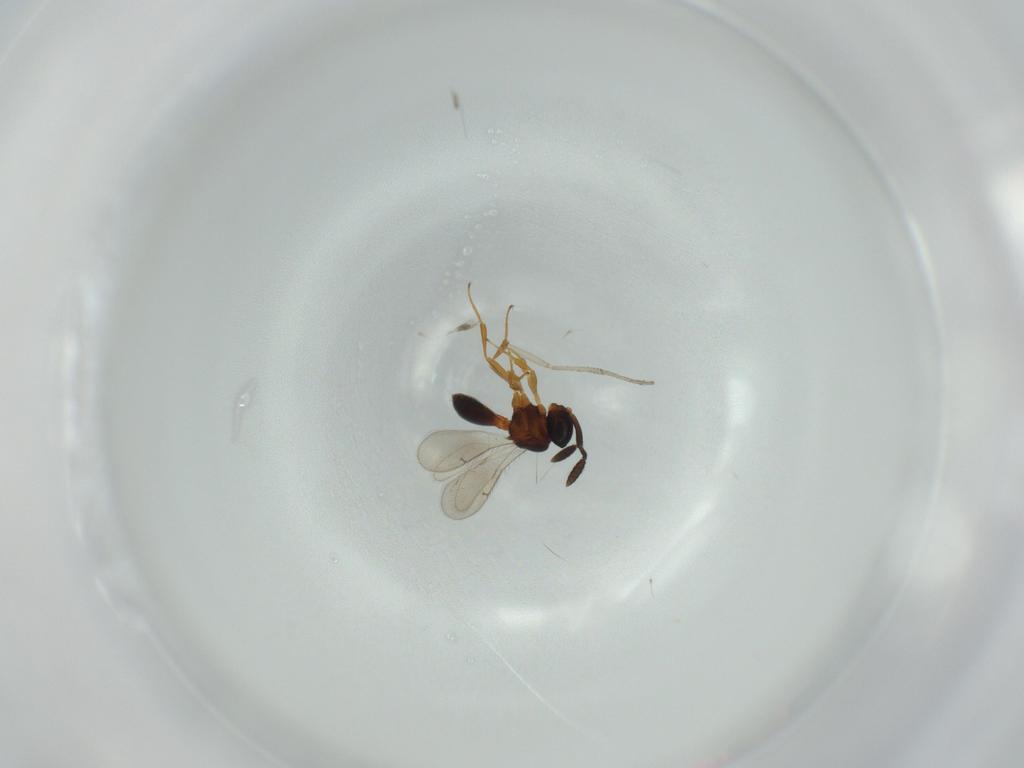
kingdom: Animalia
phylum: Arthropoda
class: Insecta
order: Hymenoptera
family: Scelionidae
